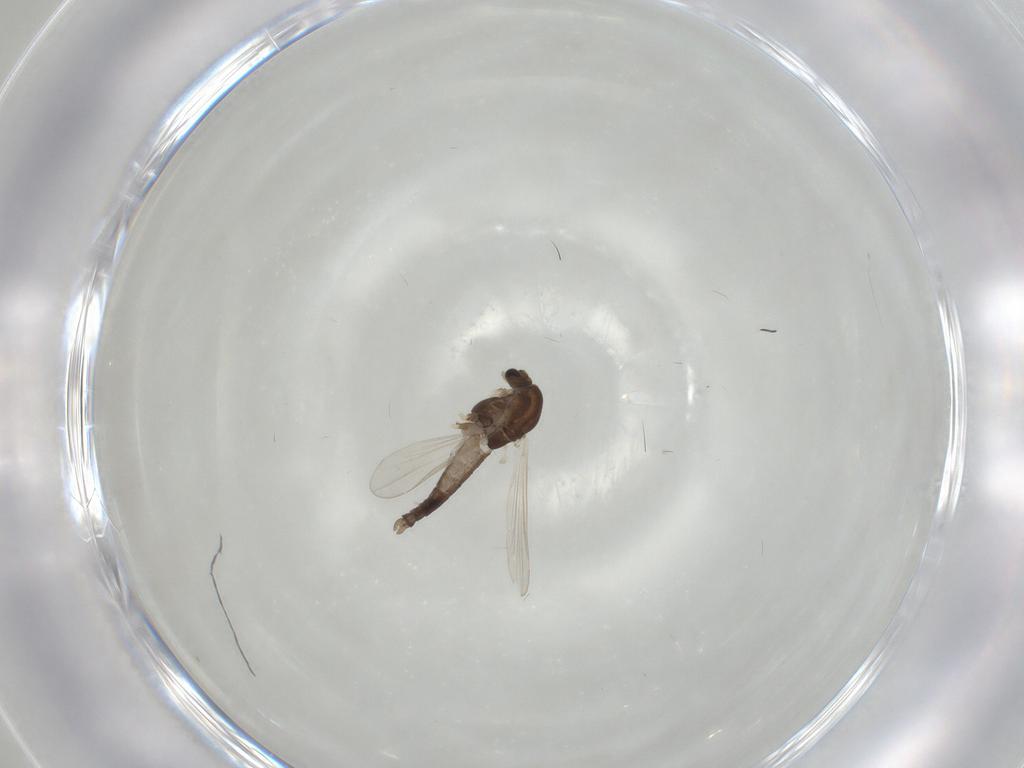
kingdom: Animalia
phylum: Arthropoda
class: Insecta
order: Diptera
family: Chironomidae
